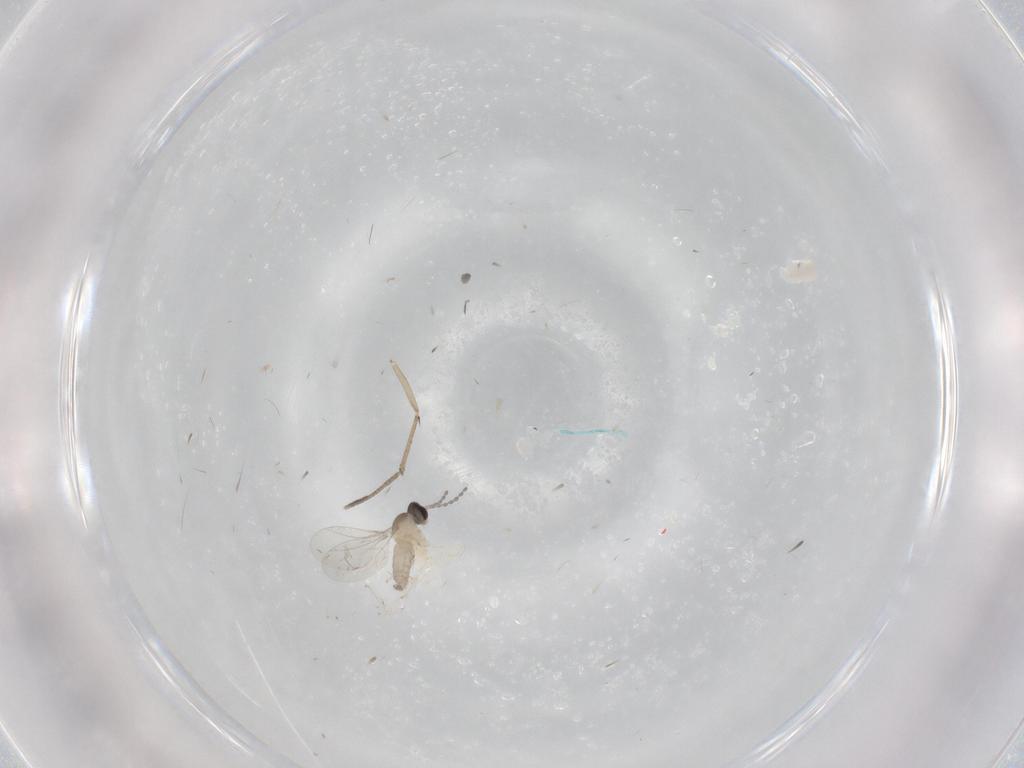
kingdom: Animalia
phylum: Arthropoda
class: Insecta
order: Diptera
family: Cecidomyiidae
